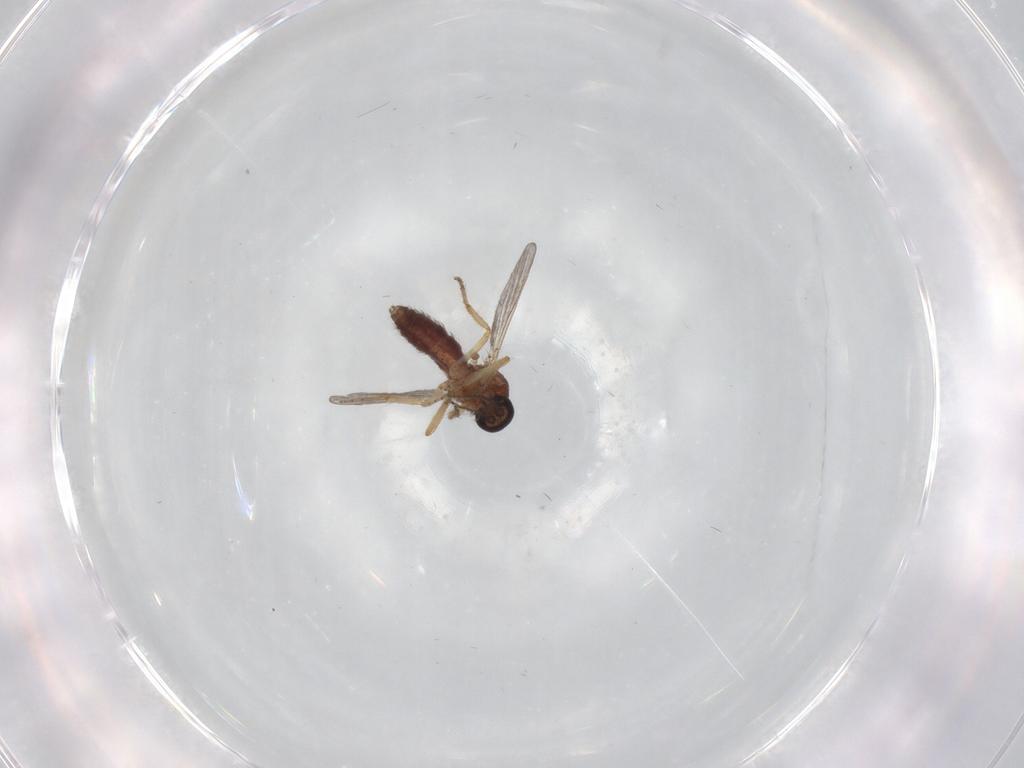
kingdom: Animalia
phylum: Arthropoda
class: Insecta
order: Diptera
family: Ceratopogonidae
